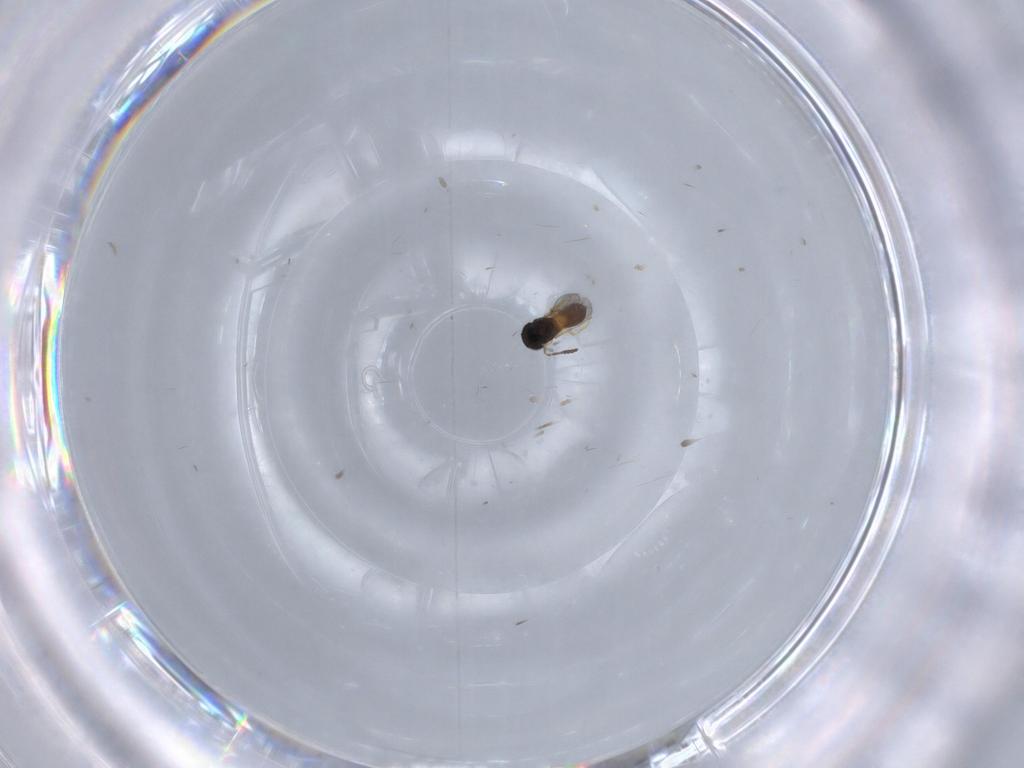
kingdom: Animalia
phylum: Arthropoda
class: Insecta
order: Hymenoptera
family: Scelionidae
